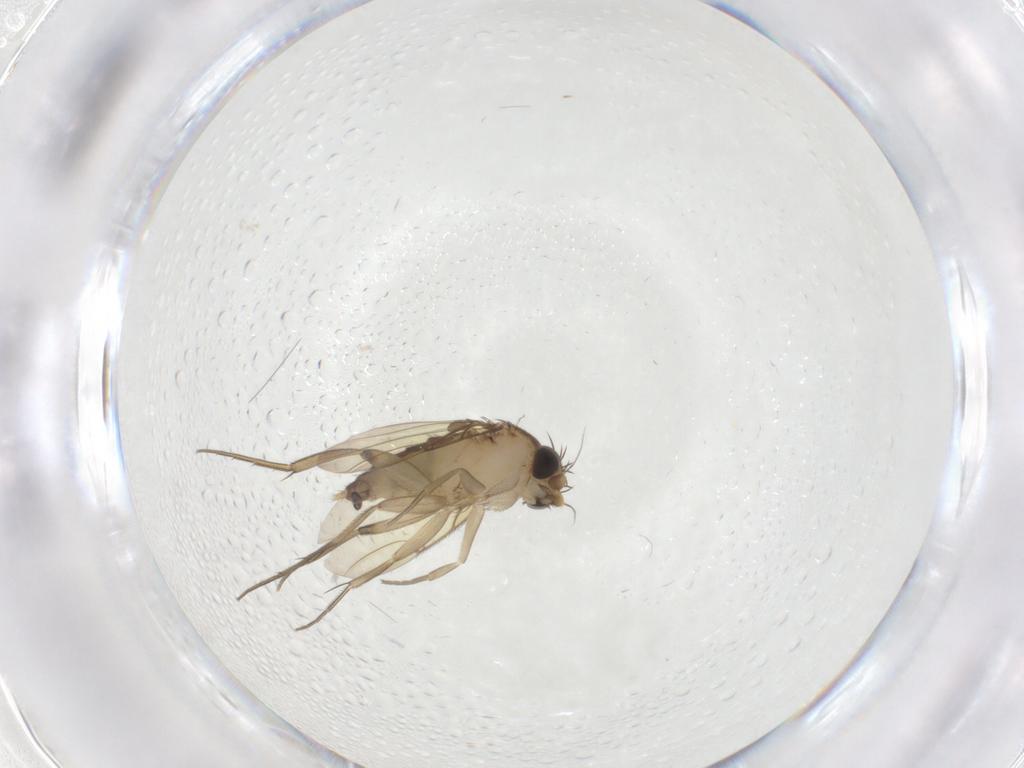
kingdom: Animalia
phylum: Arthropoda
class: Insecta
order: Diptera
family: Phoridae
